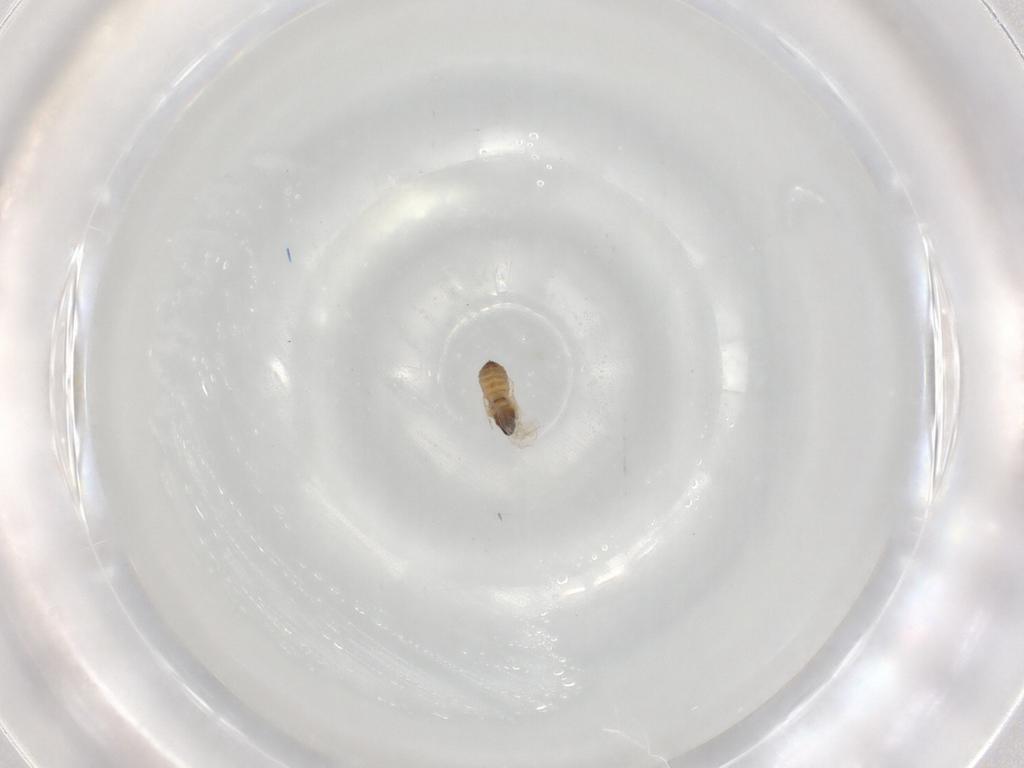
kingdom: Animalia
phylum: Arthropoda
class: Insecta
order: Diptera
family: Cecidomyiidae
